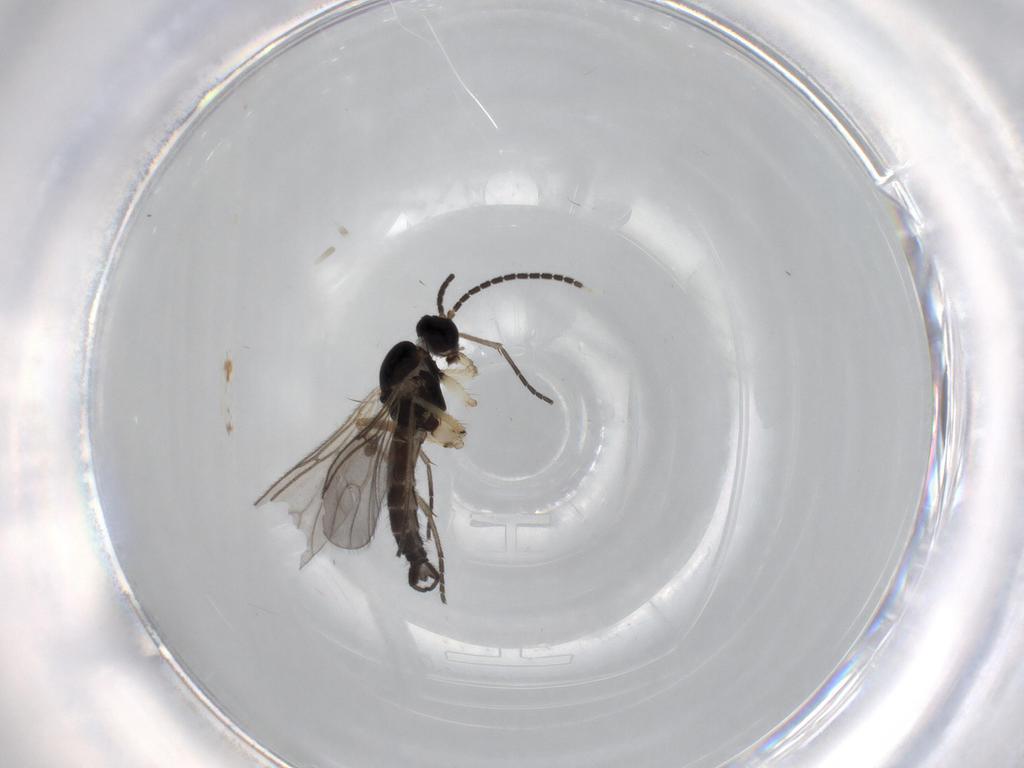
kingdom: Animalia
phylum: Arthropoda
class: Insecta
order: Diptera
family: Sciaridae
